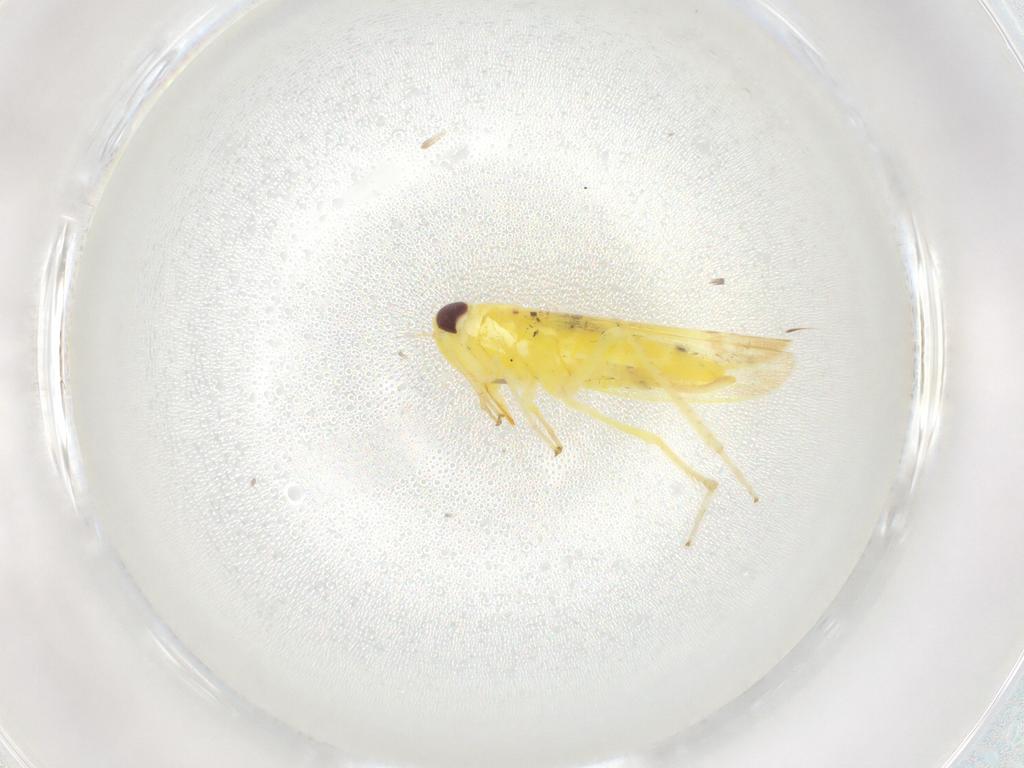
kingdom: Animalia
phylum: Arthropoda
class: Insecta
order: Hemiptera
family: Cicadellidae
